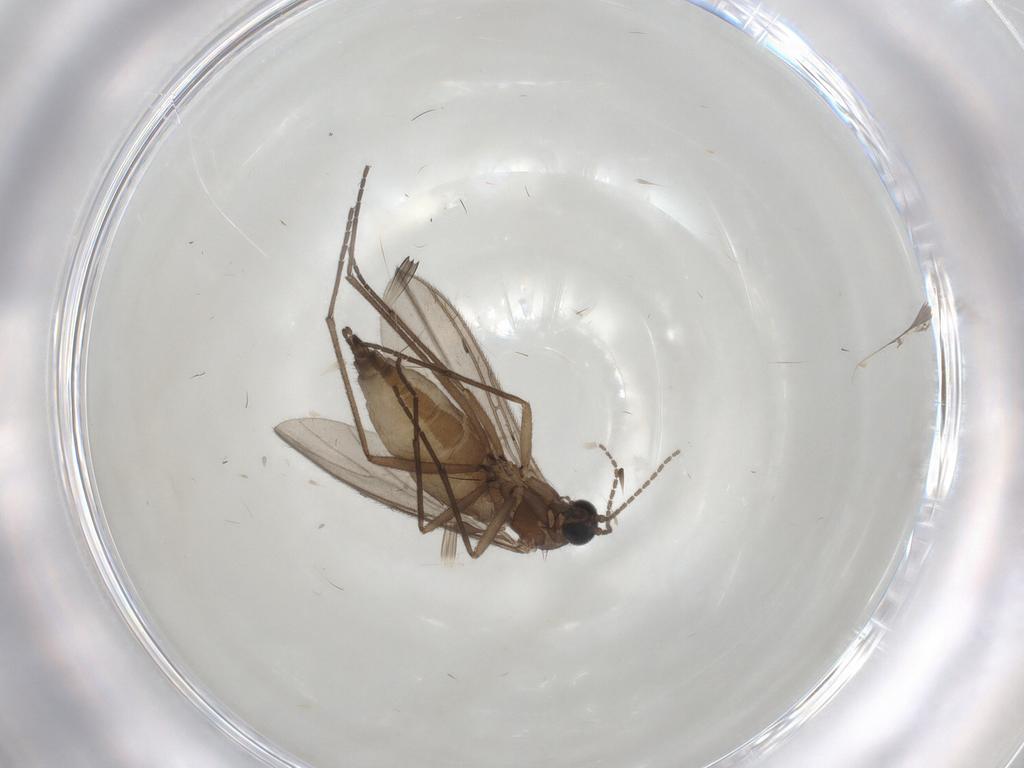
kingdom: Animalia
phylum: Arthropoda
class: Insecta
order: Diptera
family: Sciaridae
